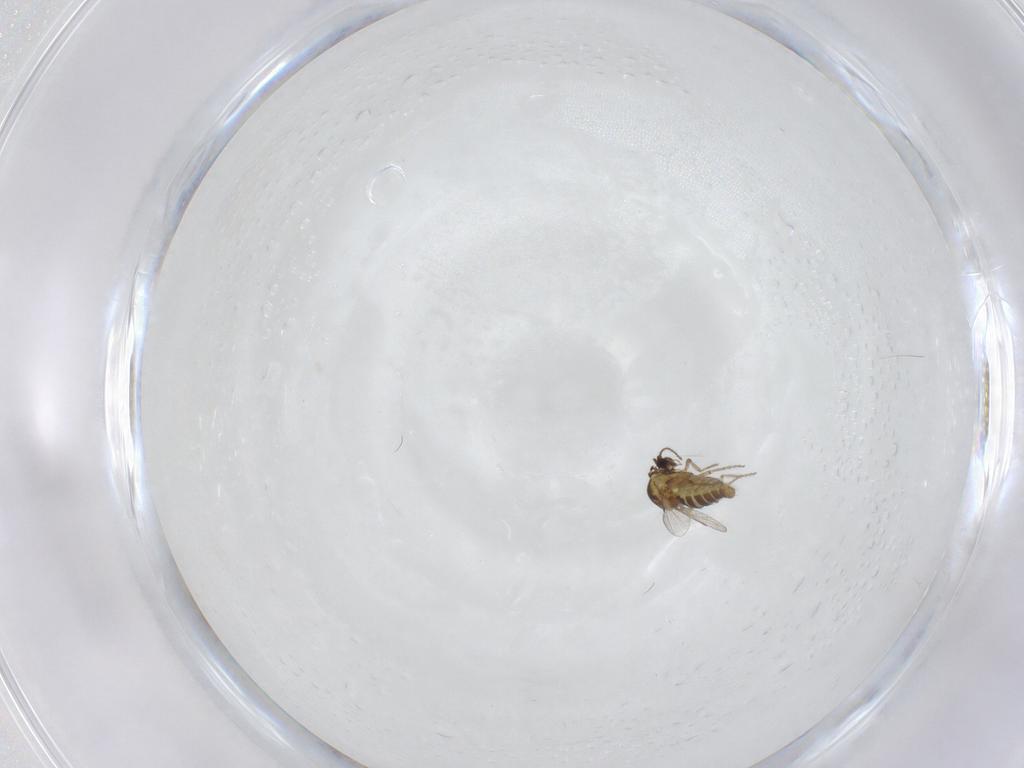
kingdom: Animalia
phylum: Arthropoda
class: Insecta
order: Diptera
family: Ceratopogonidae
